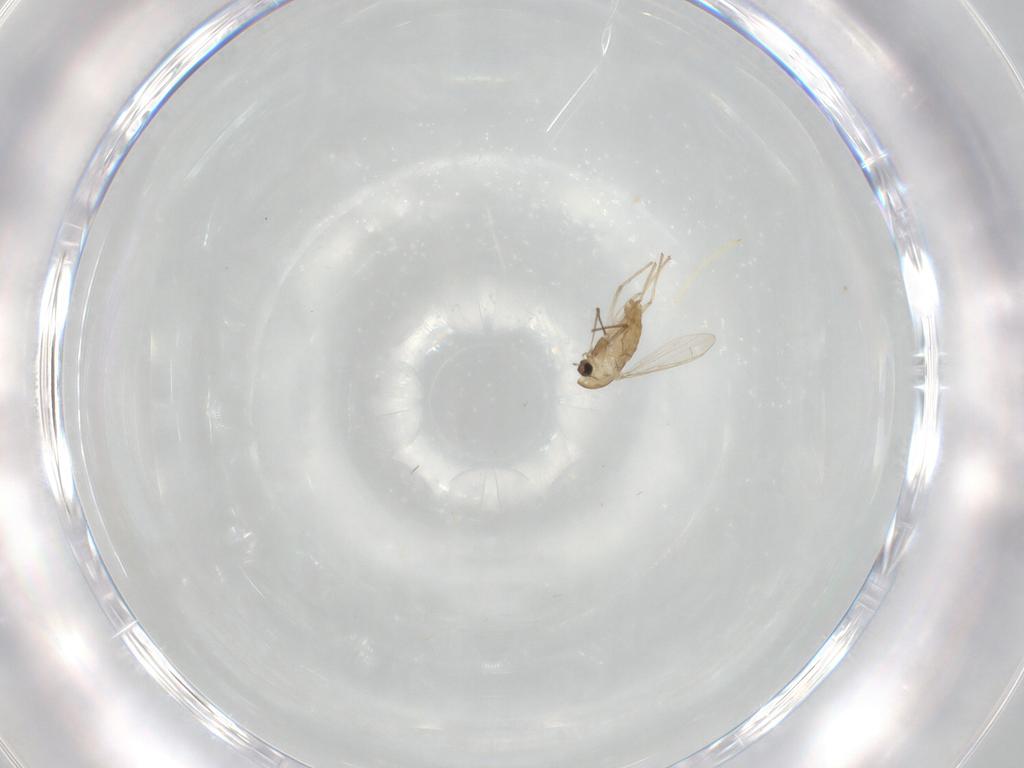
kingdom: Animalia
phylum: Arthropoda
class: Insecta
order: Diptera
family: Chironomidae
